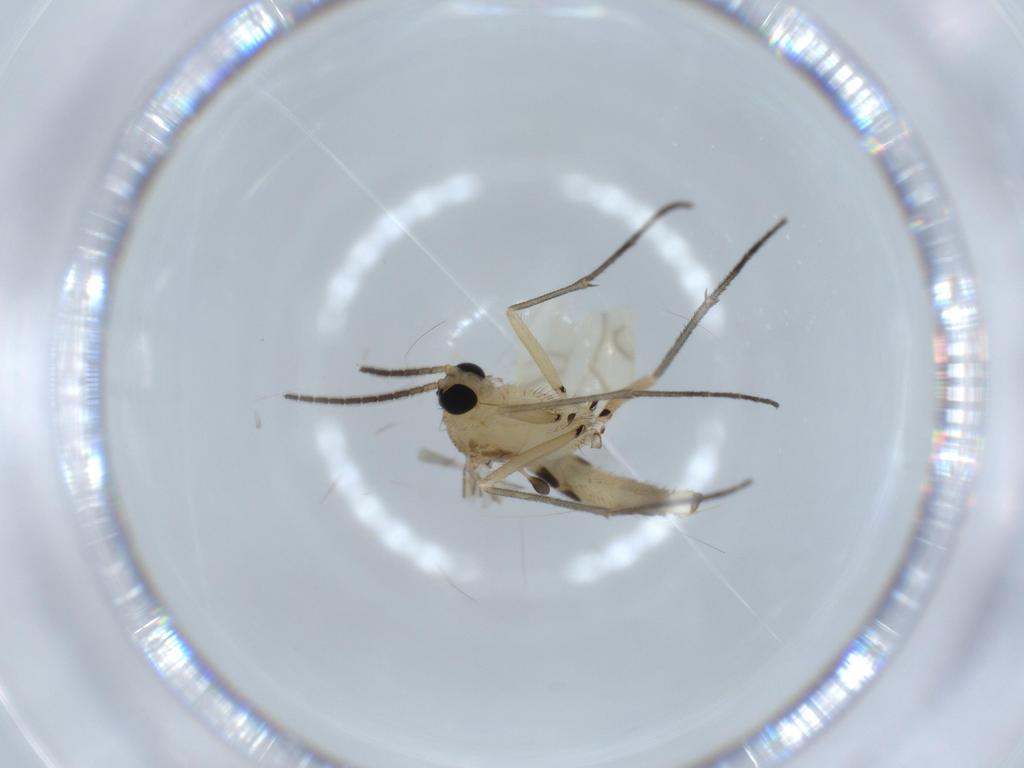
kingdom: Animalia
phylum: Arthropoda
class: Insecta
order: Diptera
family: Sciaridae
